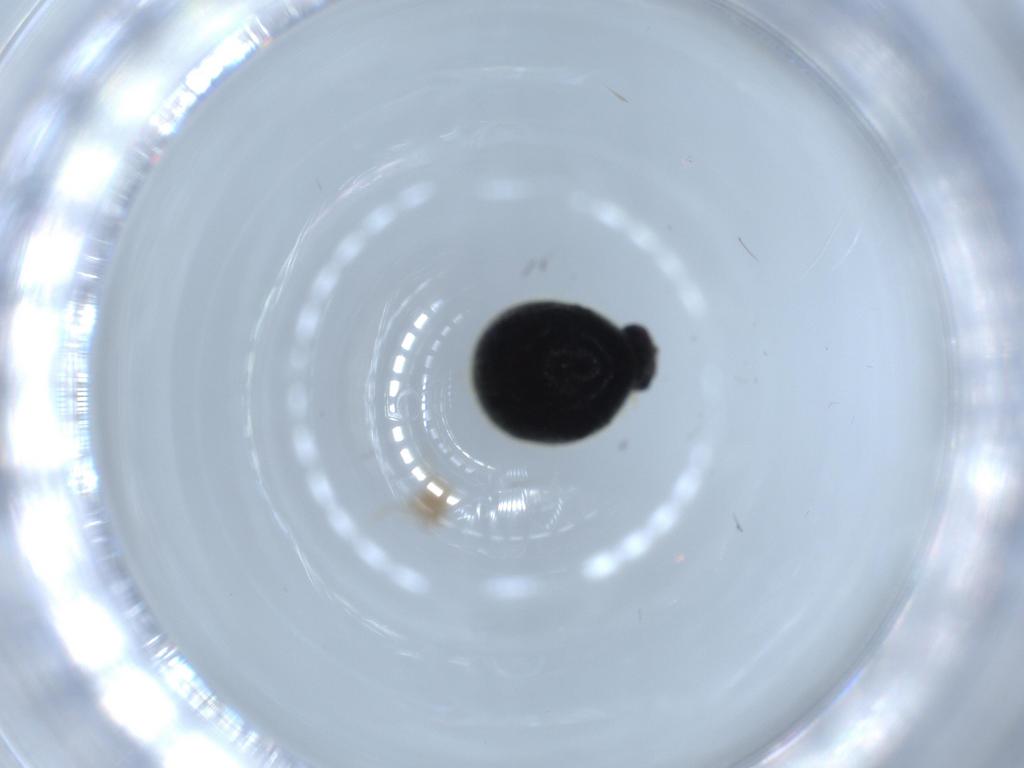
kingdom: Animalia
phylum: Arthropoda
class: Insecta
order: Coleoptera
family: Ptinidae
